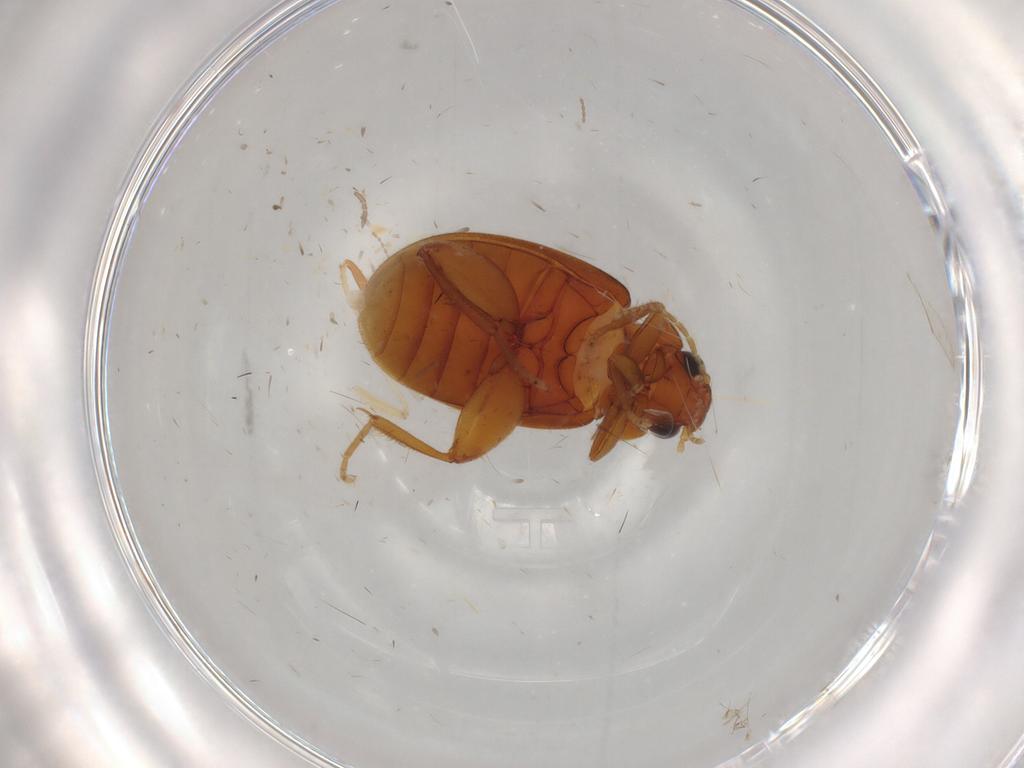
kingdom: Animalia
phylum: Arthropoda
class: Insecta
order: Coleoptera
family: Scirtidae
